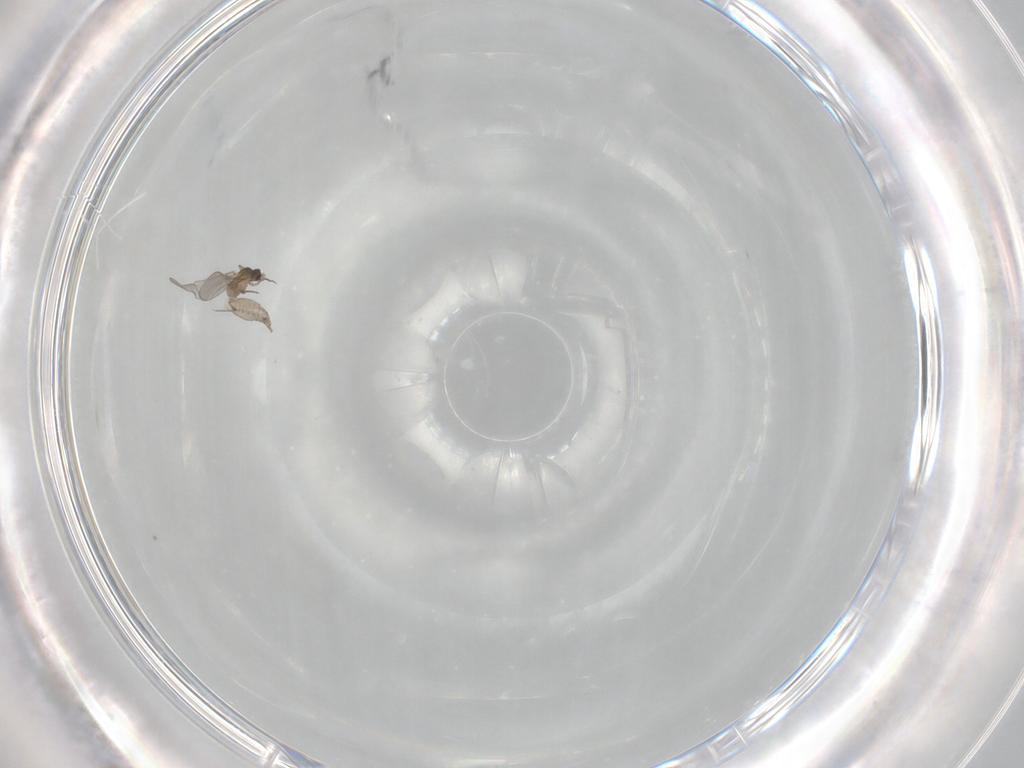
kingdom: Animalia
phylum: Arthropoda
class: Insecta
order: Diptera
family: Cecidomyiidae
